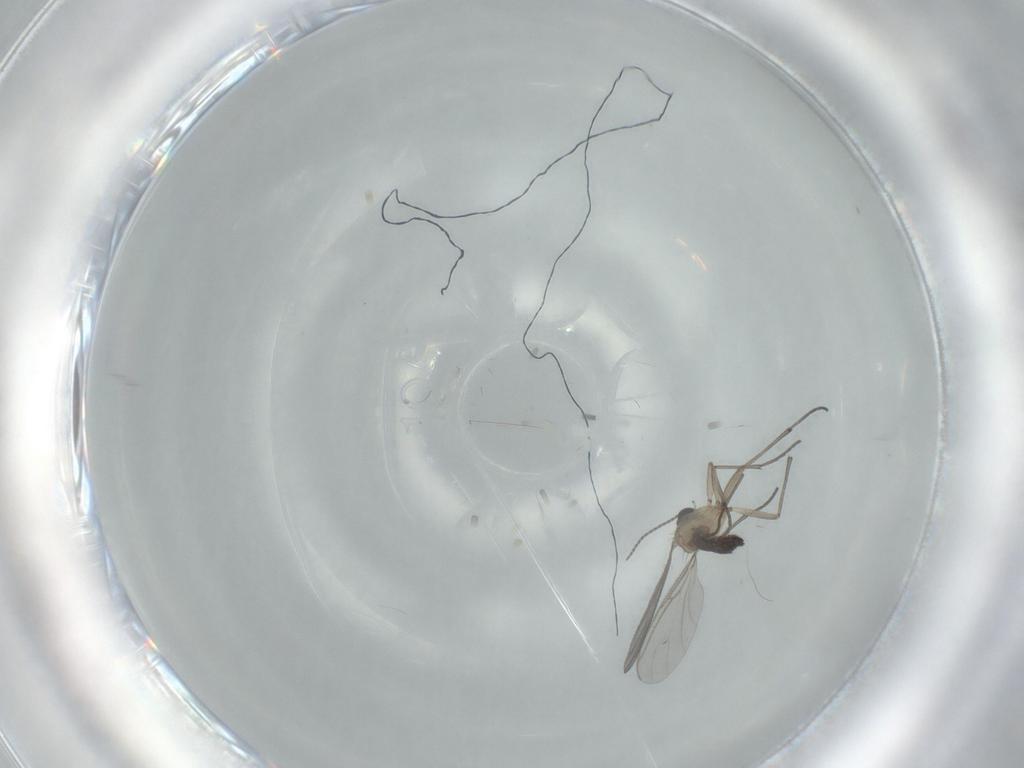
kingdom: Animalia
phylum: Arthropoda
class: Insecta
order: Diptera
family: Sciaridae
